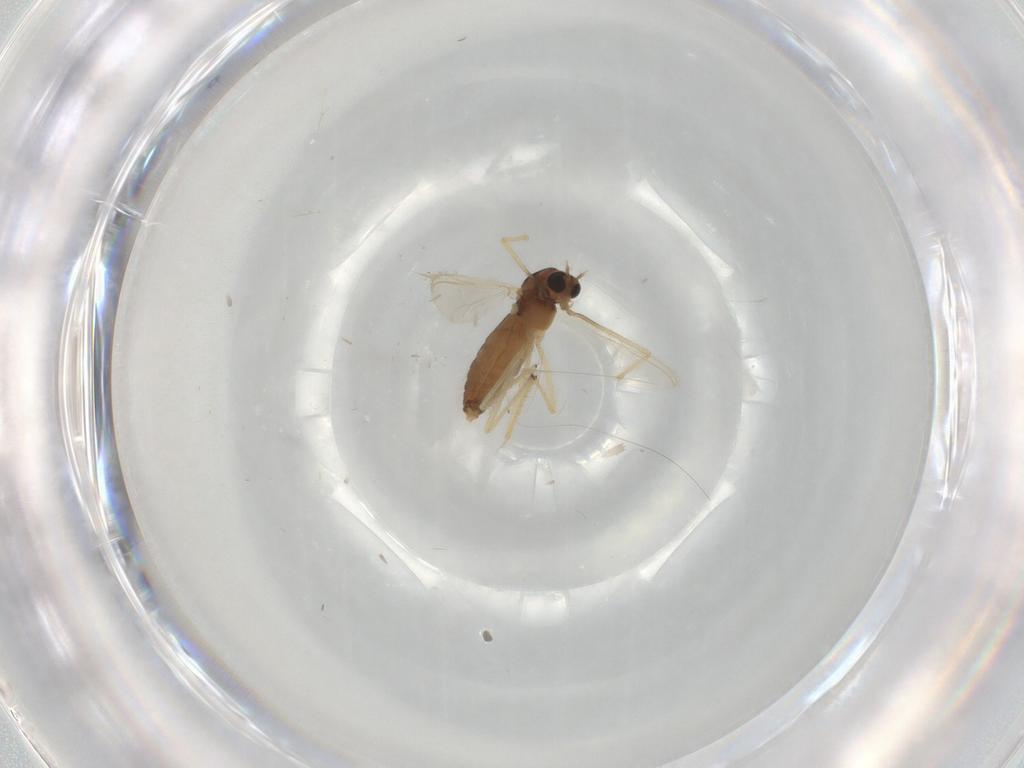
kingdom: Animalia
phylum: Arthropoda
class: Insecta
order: Diptera
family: Chironomidae
